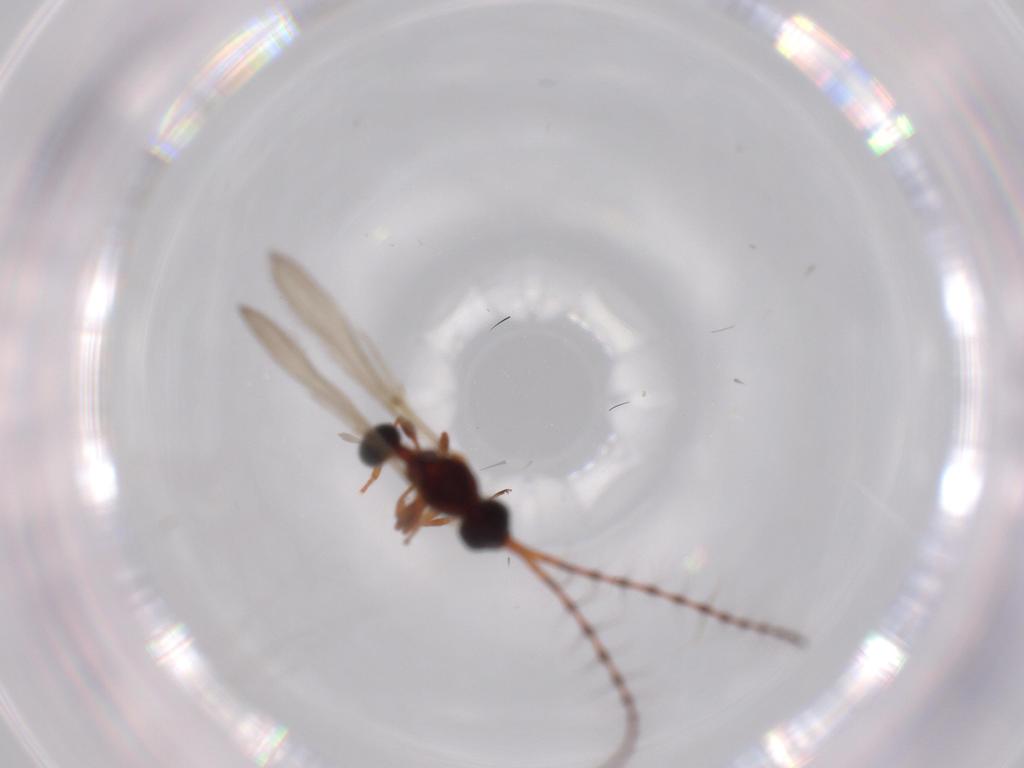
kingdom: Animalia
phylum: Arthropoda
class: Insecta
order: Hymenoptera
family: Diapriidae
